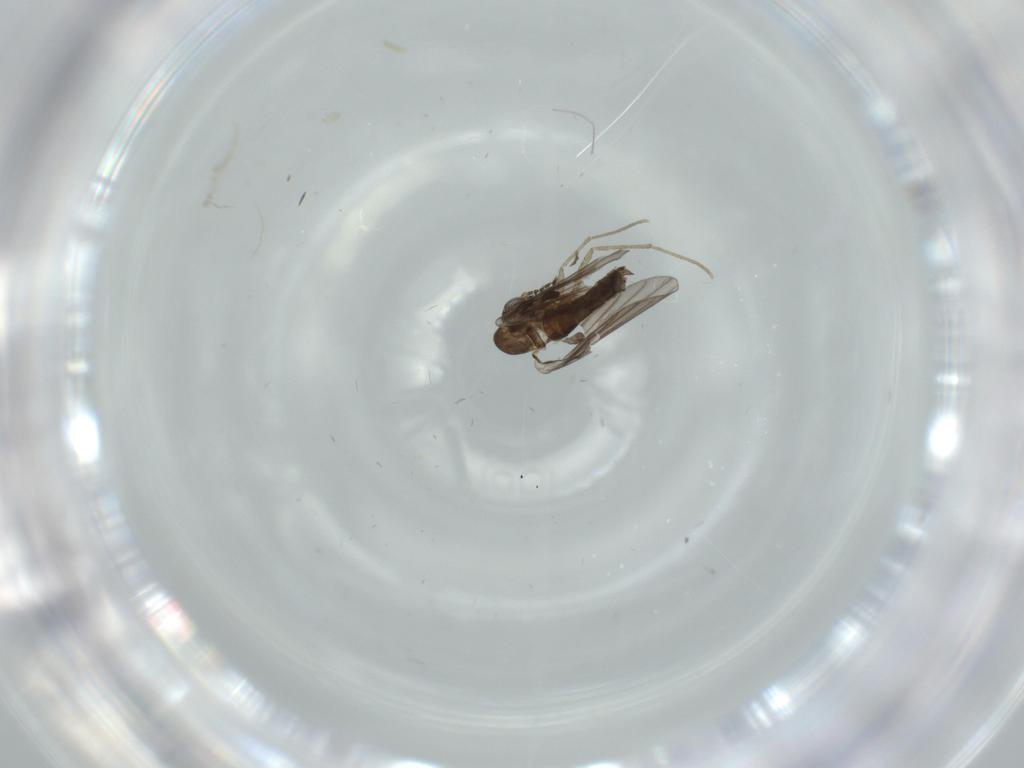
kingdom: Animalia
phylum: Arthropoda
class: Insecta
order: Diptera
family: Psychodidae
